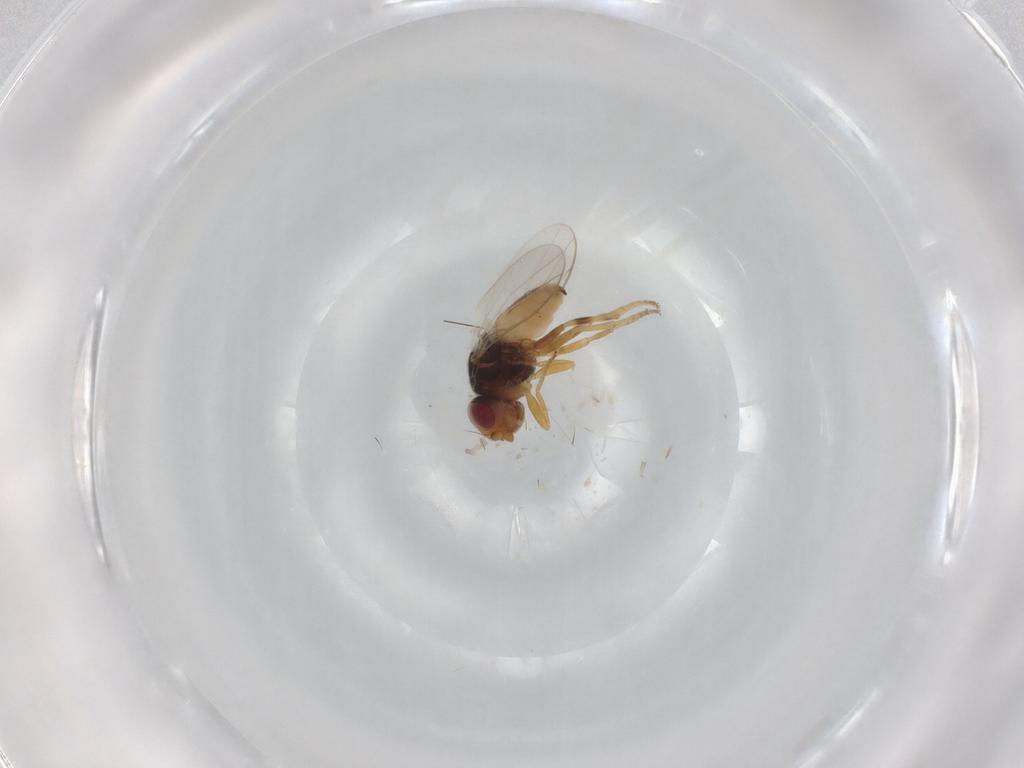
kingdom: Animalia
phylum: Arthropoda
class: Insecta
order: Diptera
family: Chloropidae
